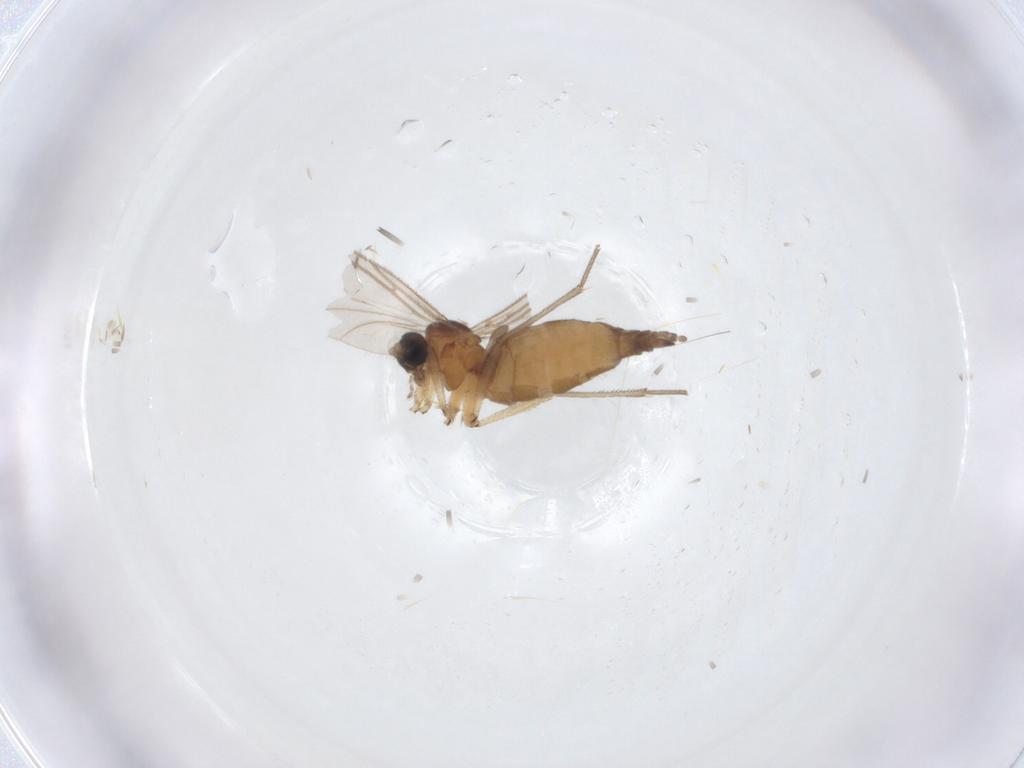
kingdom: Animalia
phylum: Arthropoda
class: Insecta
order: Diptera
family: Sciaridae
